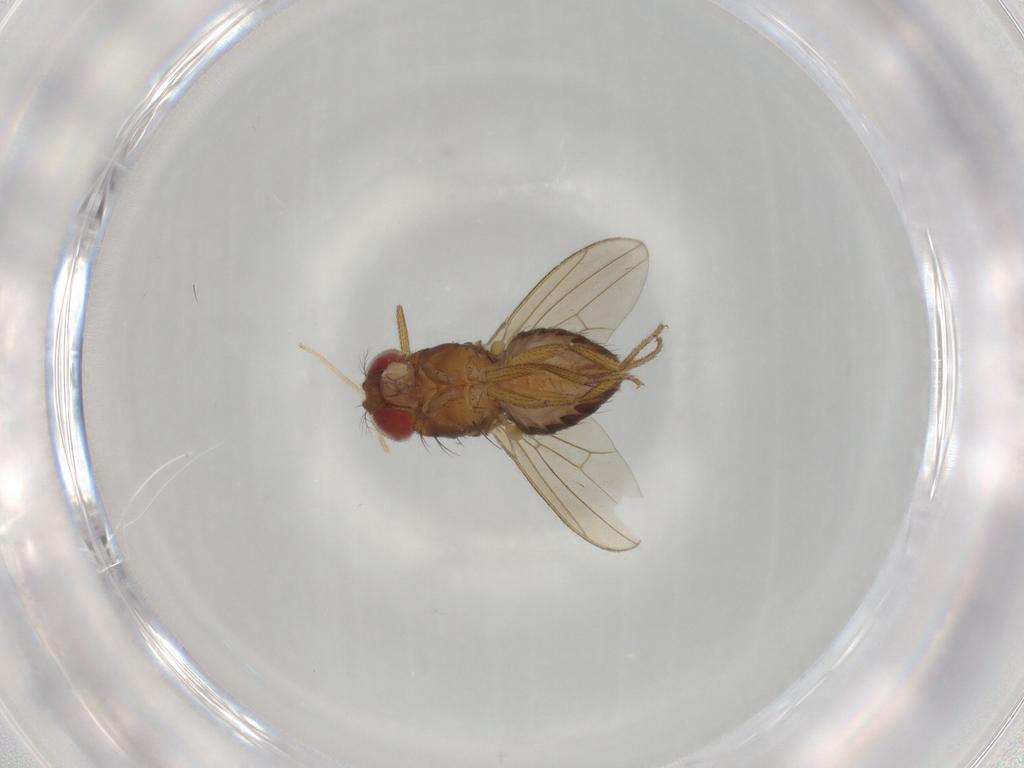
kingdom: Animalia
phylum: Arthropoda
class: Insecta
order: Diptera
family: Drosophilidae
